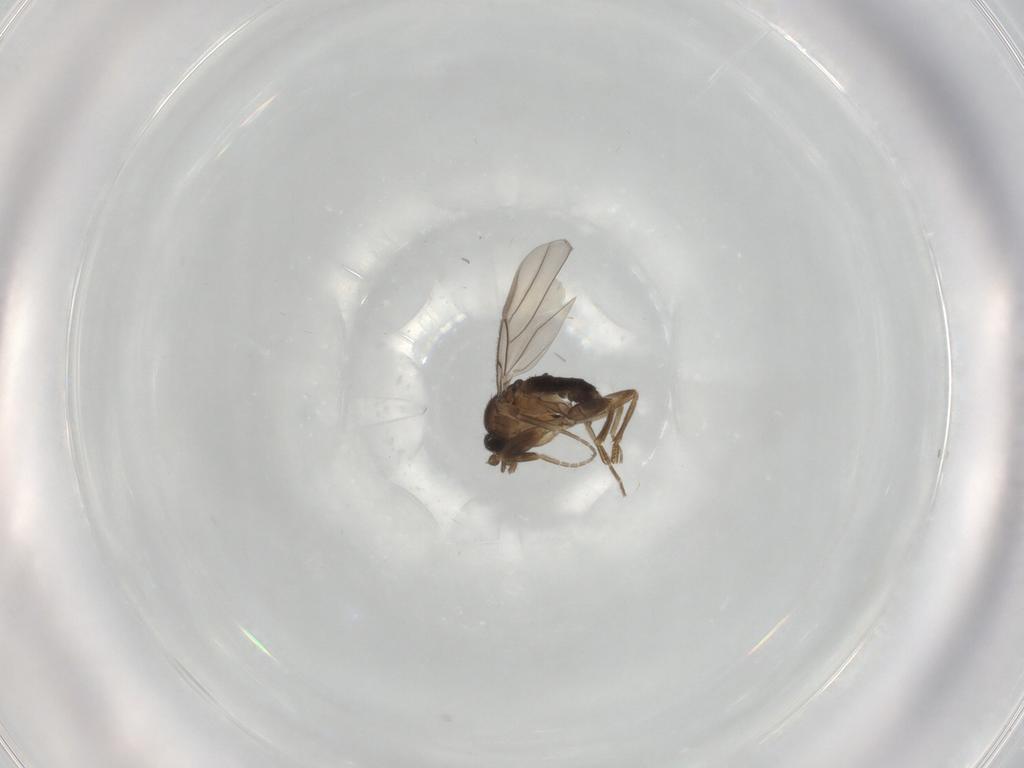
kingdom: Animalia
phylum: Arthropoda
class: Insecta
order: Diptera
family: Phoridae
